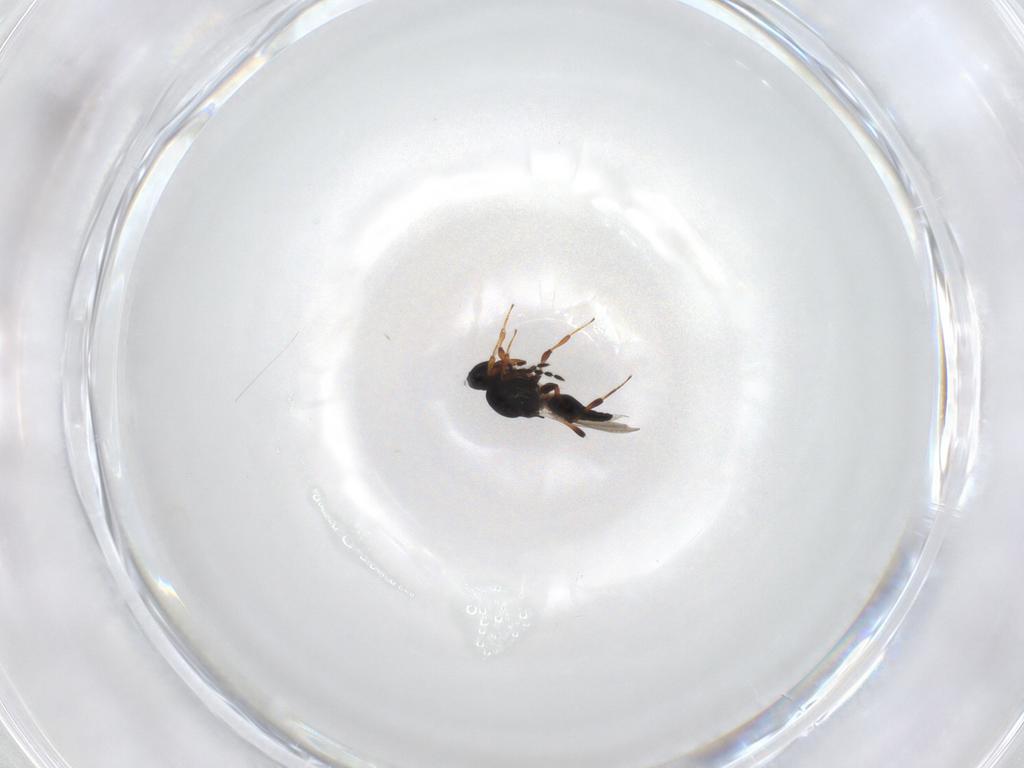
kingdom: Animalia
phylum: Arthropoda
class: Insecta
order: Hymenoptera
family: Platygastridae
